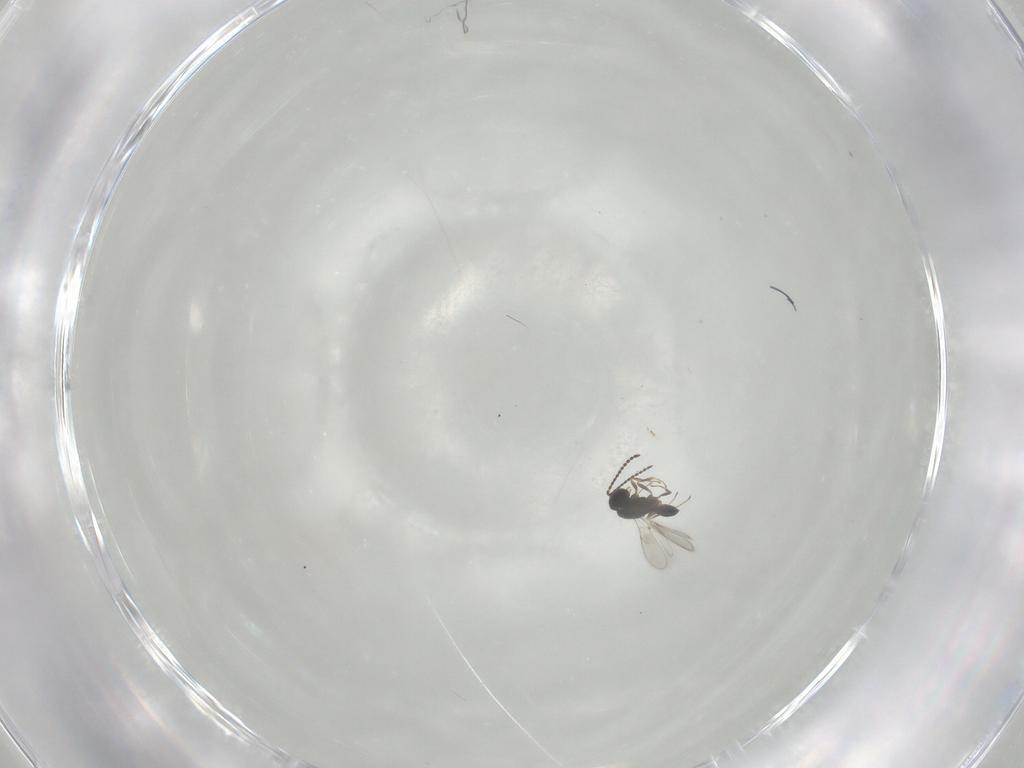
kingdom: Animalia
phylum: Arthropoda
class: Insecta
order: Hymenoptera
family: Scelionidae
